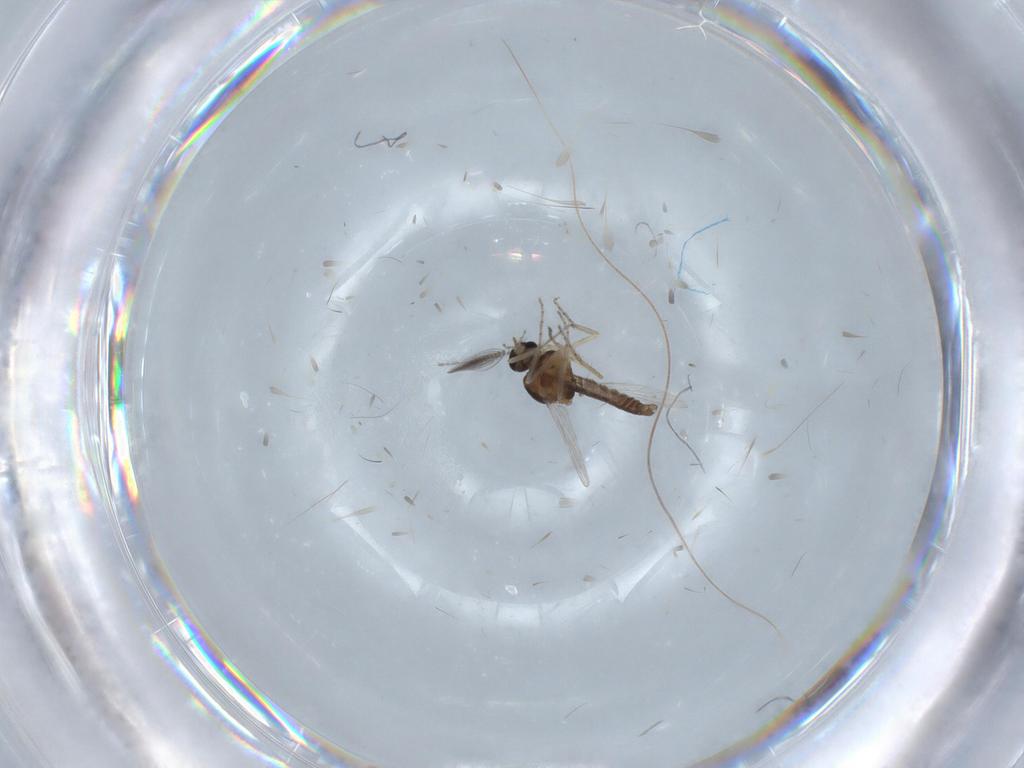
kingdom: Animalia
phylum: Arthropoda
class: Insecta
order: Diptera
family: Ceratopogonidae
